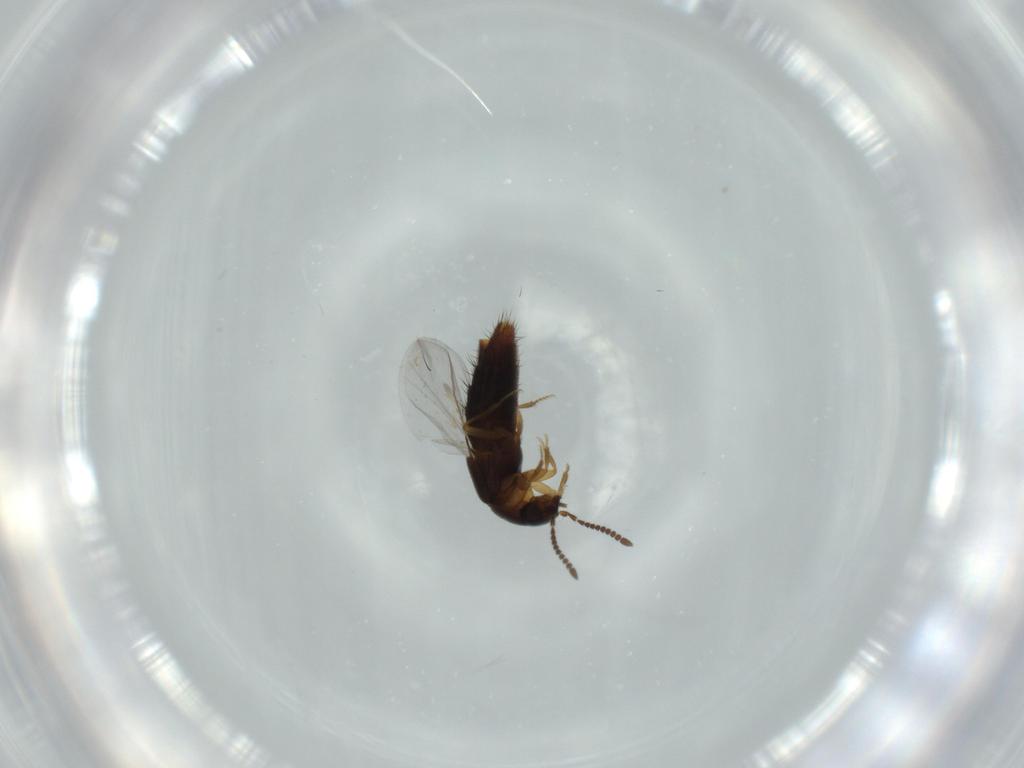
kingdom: Animalia
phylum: Arthropoda
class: Insecta
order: Coleoptera
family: Staphylinidae
